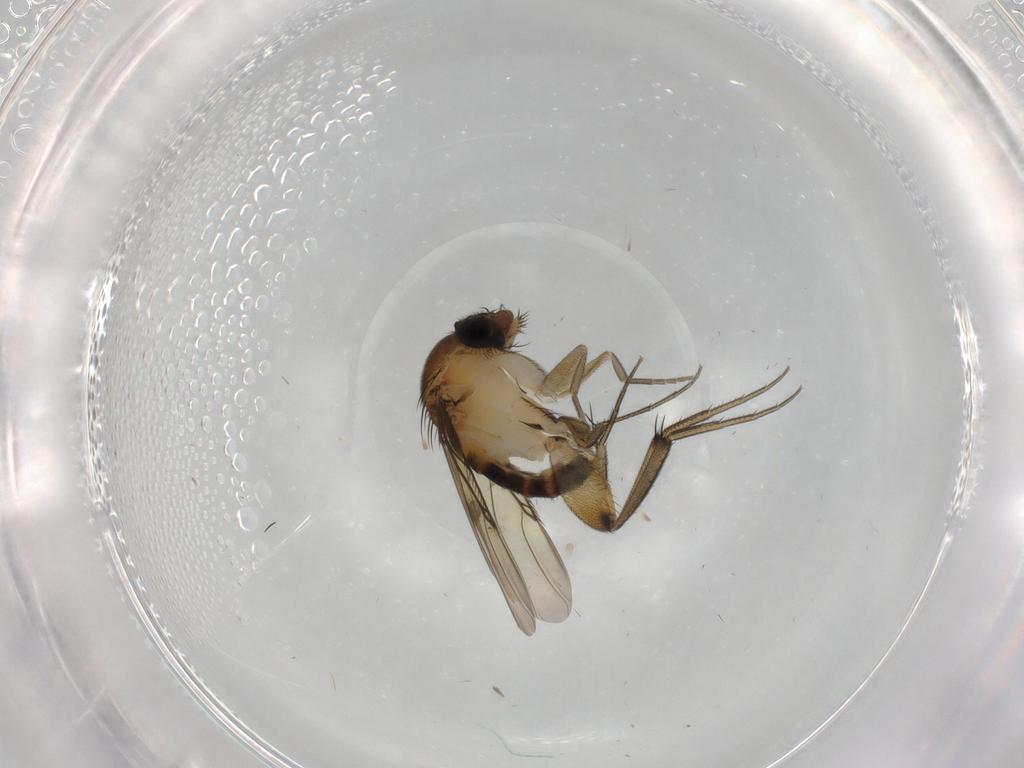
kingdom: Animalia
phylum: Arthropoda
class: Insecta
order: Diptera
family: Phoridae
